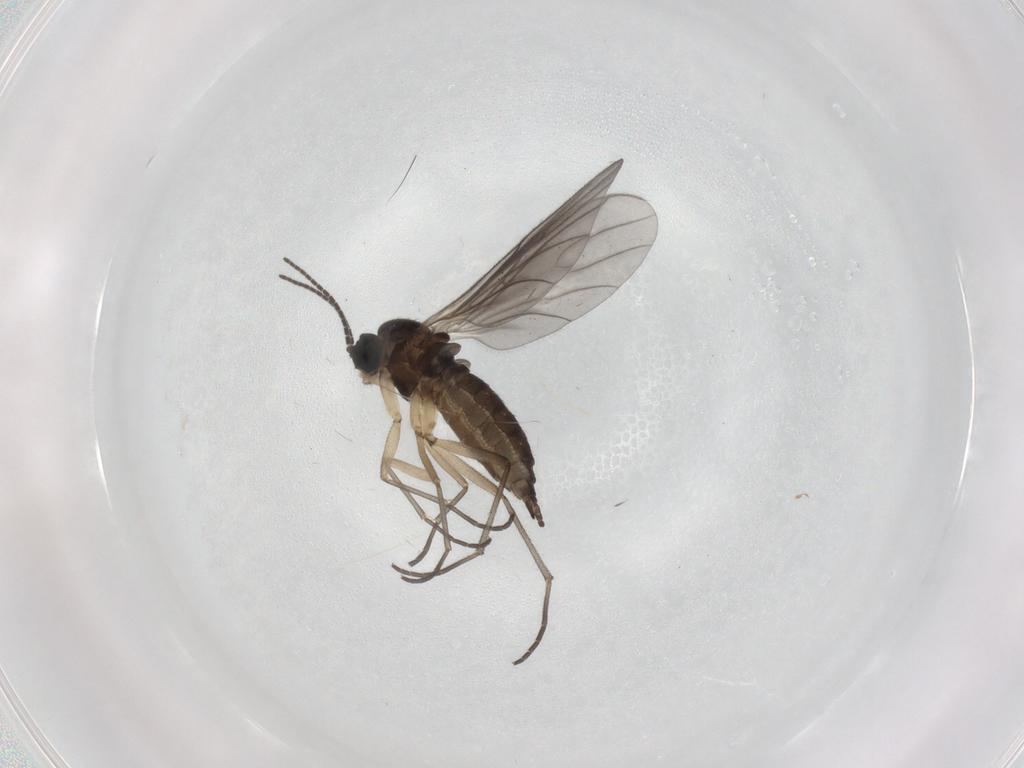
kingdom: Animalia
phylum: Arthropoda
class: Insecta
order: Diptera
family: Sciaridae
